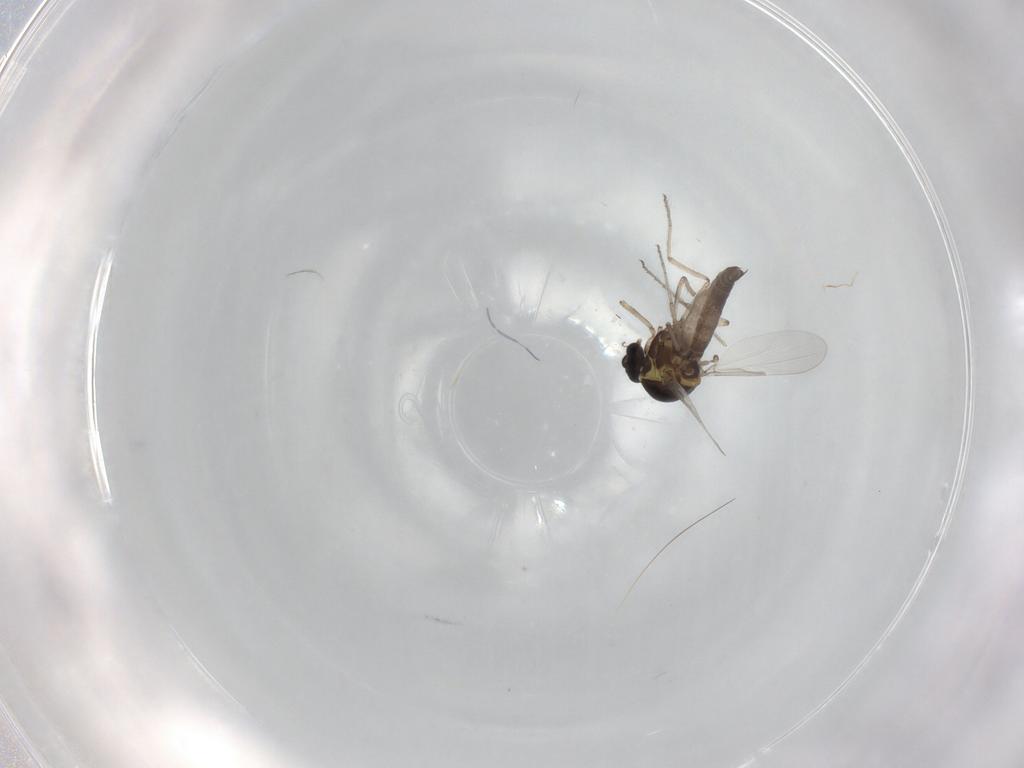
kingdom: Animalia
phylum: Arthropoda
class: Insecta
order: Diptera
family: Ceratopogonidae
